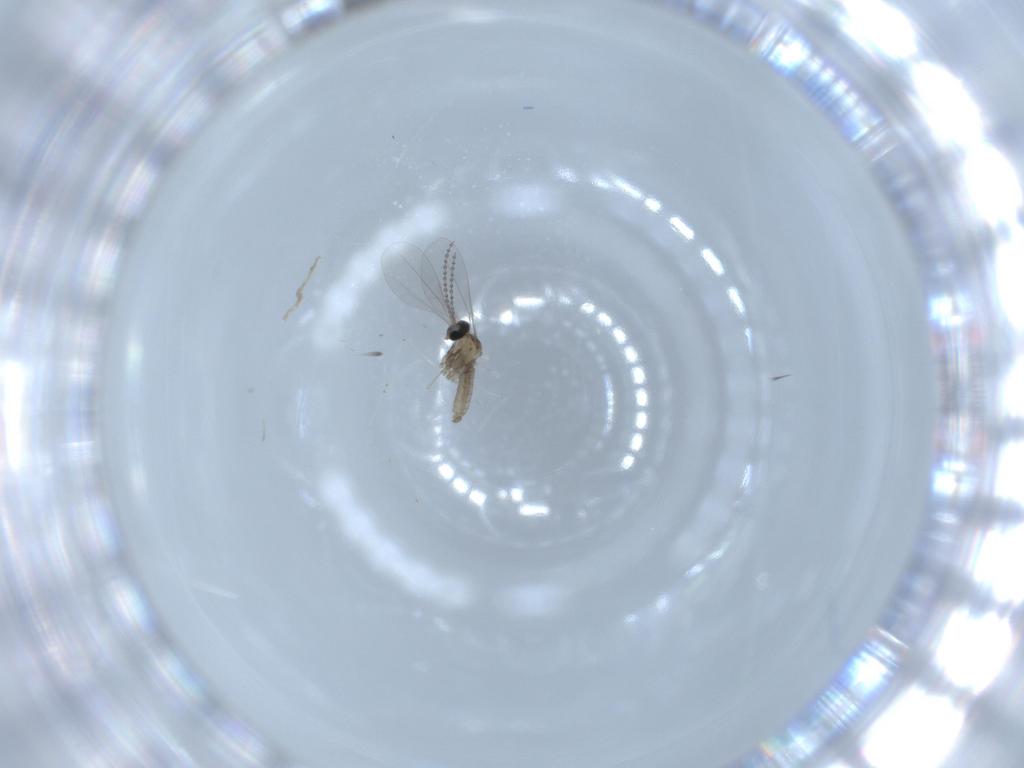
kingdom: Animalia
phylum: Arthropoda
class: Insecta
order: Diptera
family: Cecidomyiidae
